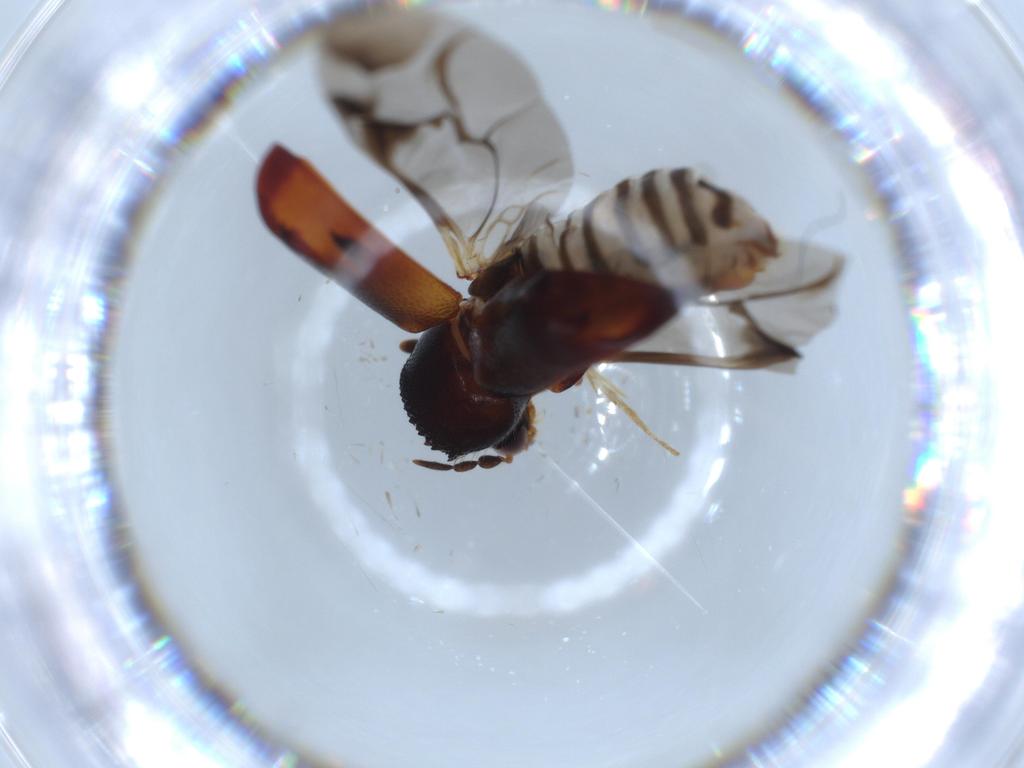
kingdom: Animalia
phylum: Arthropoda
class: Insecta
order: Coleoptera
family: Bostrichidae
